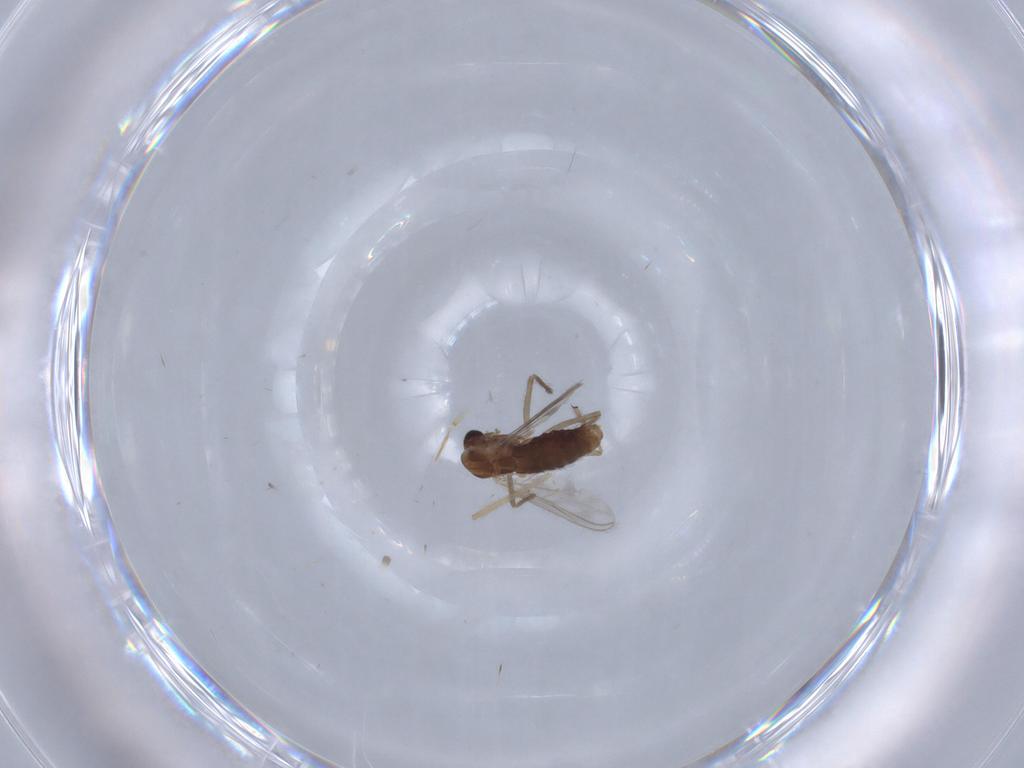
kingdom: Animalia
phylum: Arthropoda
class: Insecta
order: Diptera
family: Chironomidae
